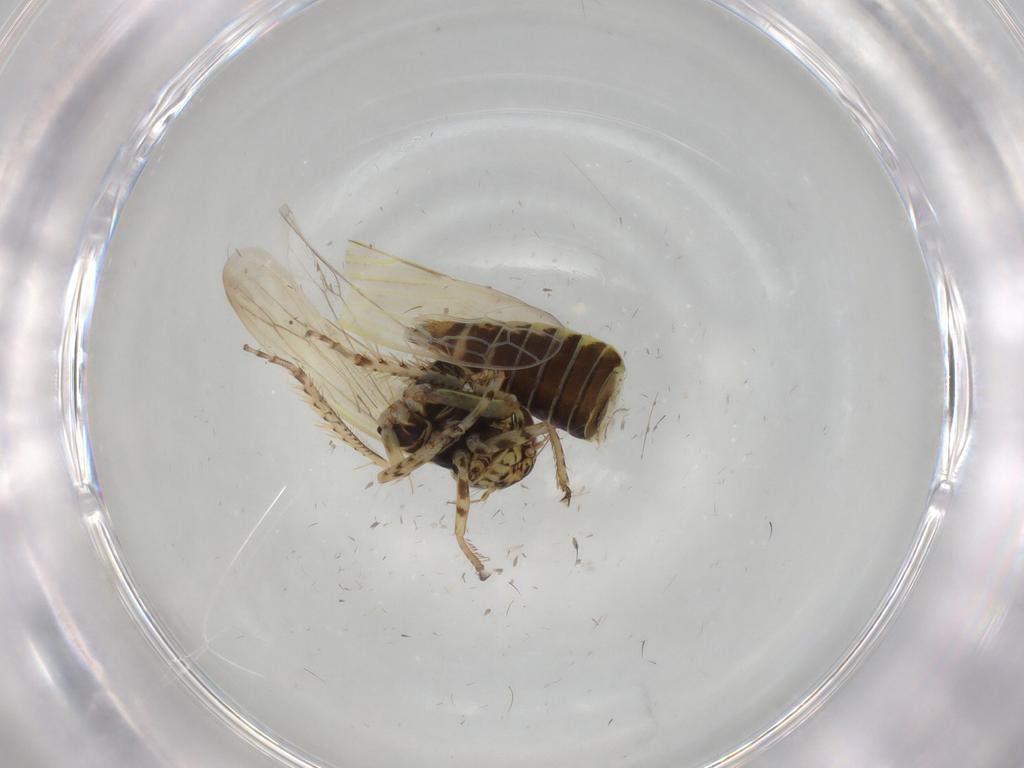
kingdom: Animalia
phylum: Arthropoda
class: Insecta
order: Hemiptera
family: Cicadellidae
